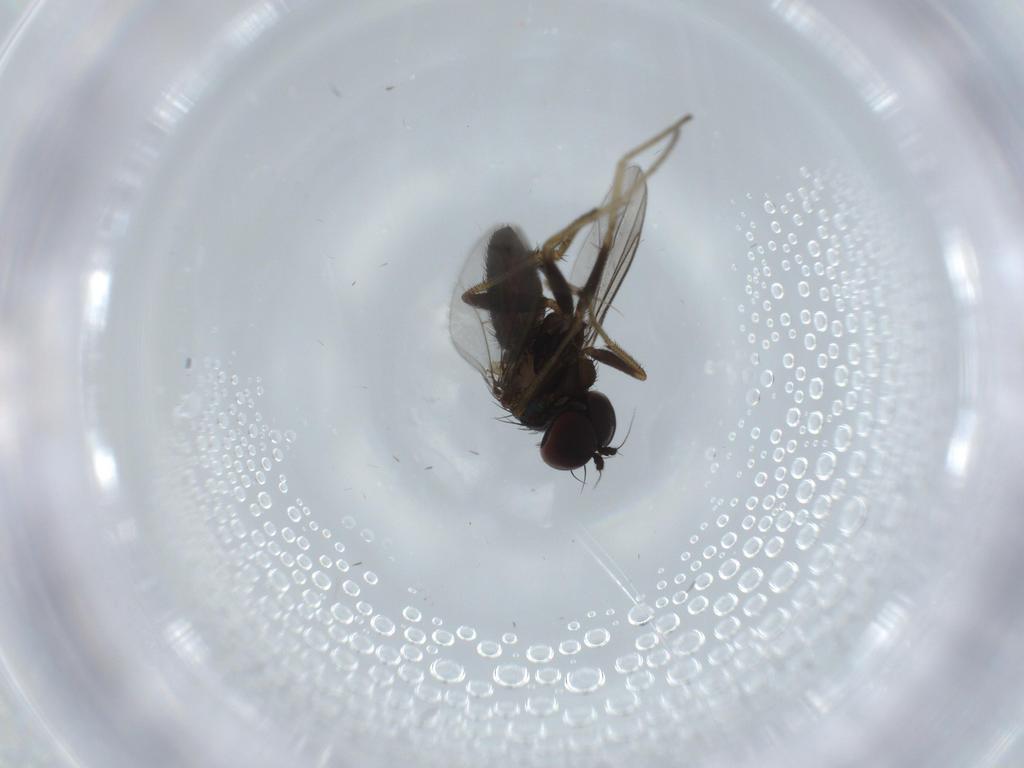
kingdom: Animalia
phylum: Arthropoda
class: Insecta
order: Diptera
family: Dolichopodidae
